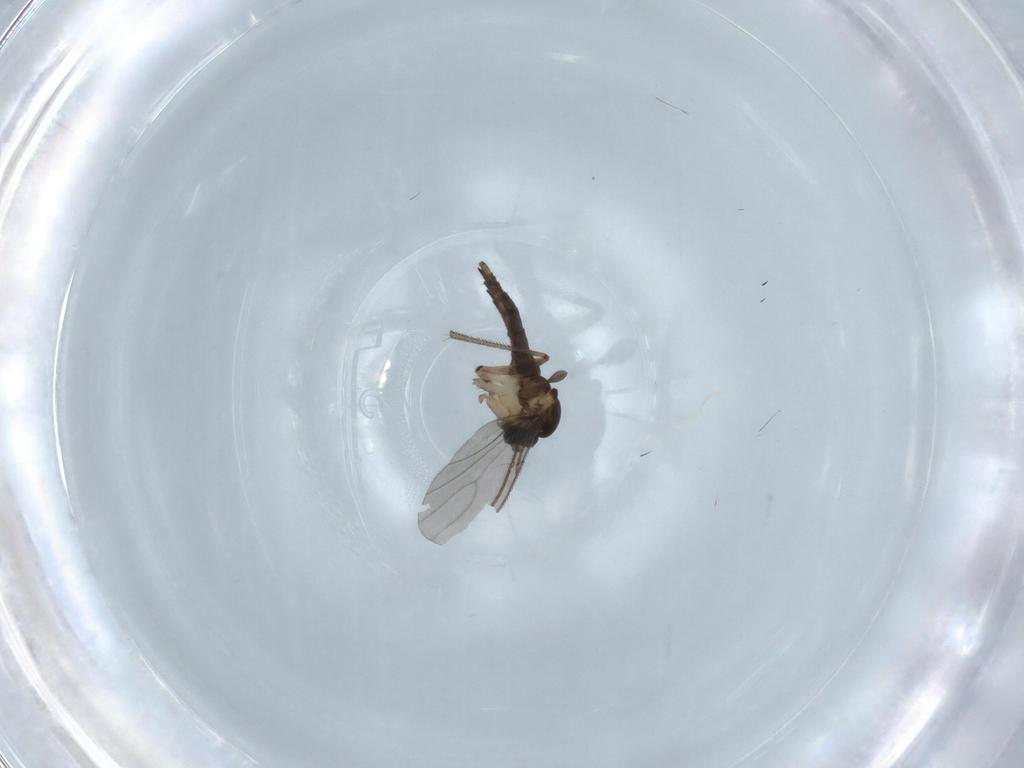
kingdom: Animalia
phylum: Arthropoda
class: Insecta
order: Diptera
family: Sciaridae
